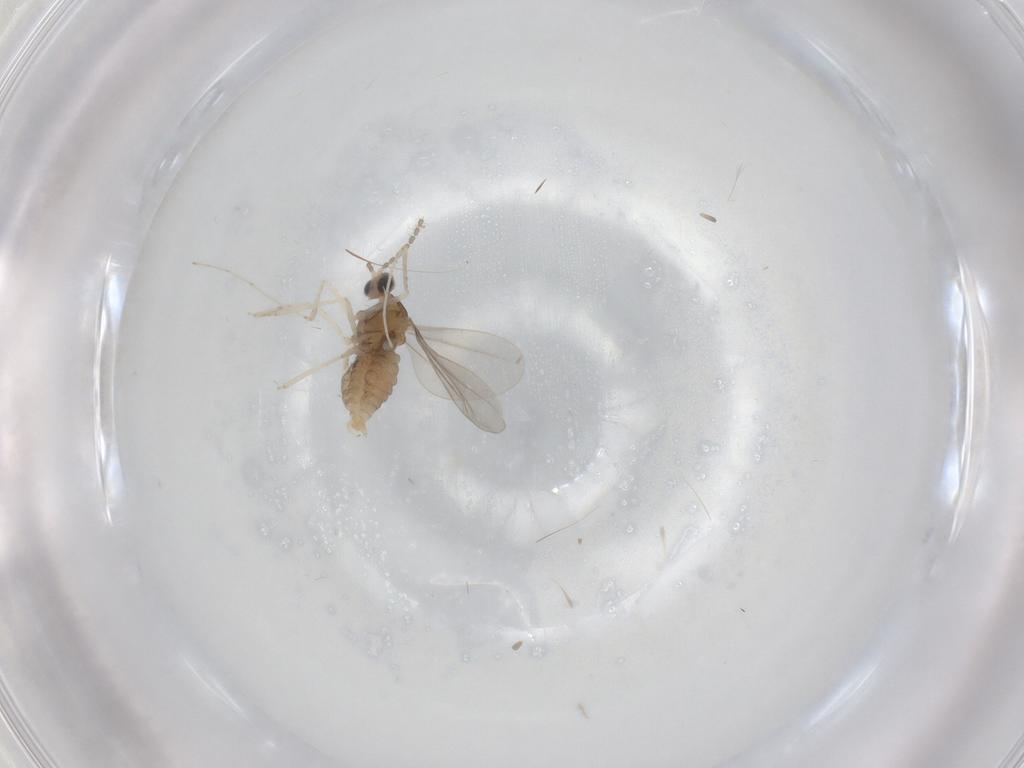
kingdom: Animalia
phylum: Arthropoda
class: Insecta
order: Diptera
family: Cecidomyiidae
